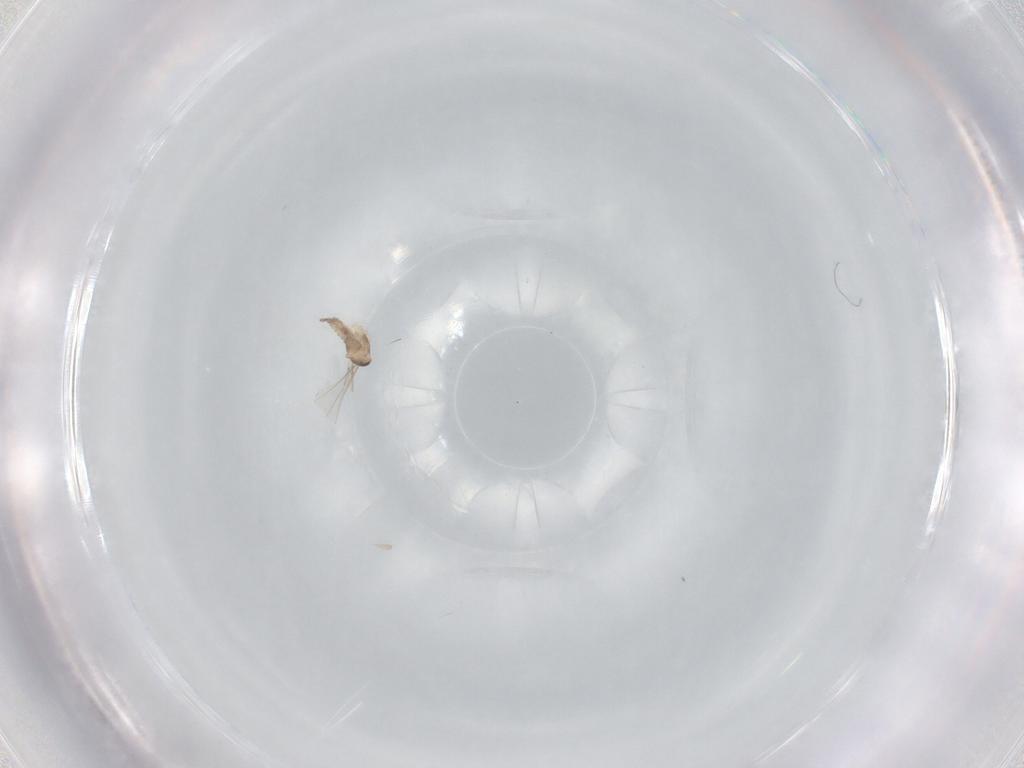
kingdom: Animalia
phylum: Arthropoda
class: Insecta
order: Diptera
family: Cecidomyiidae
